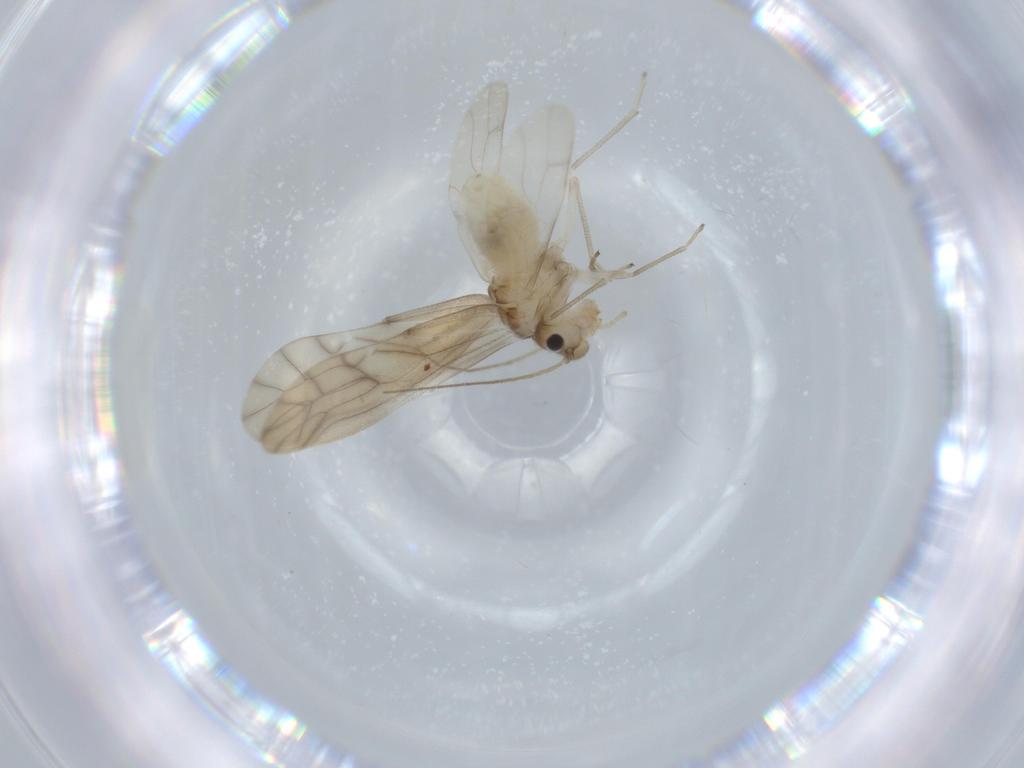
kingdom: Animalia
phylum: Arthropoda
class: Insecta
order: Psocodea
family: Caeciliusidae
